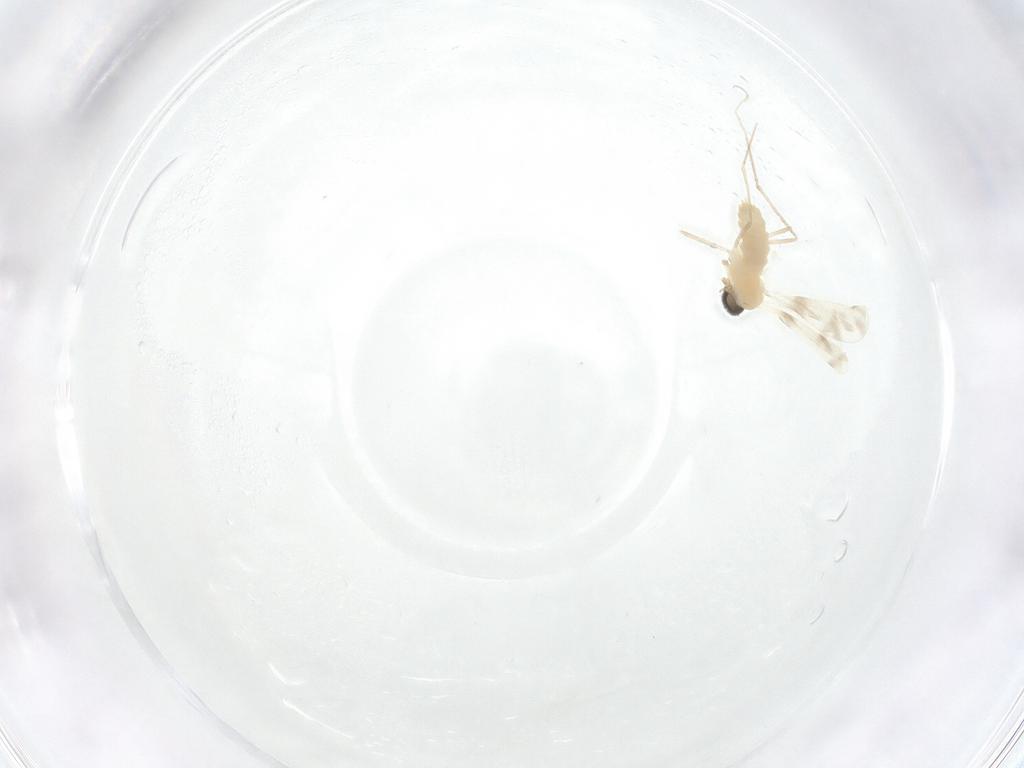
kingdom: Animalia
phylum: Arthropoda
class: Insecta
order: Diptera
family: Cecidomyiidae
